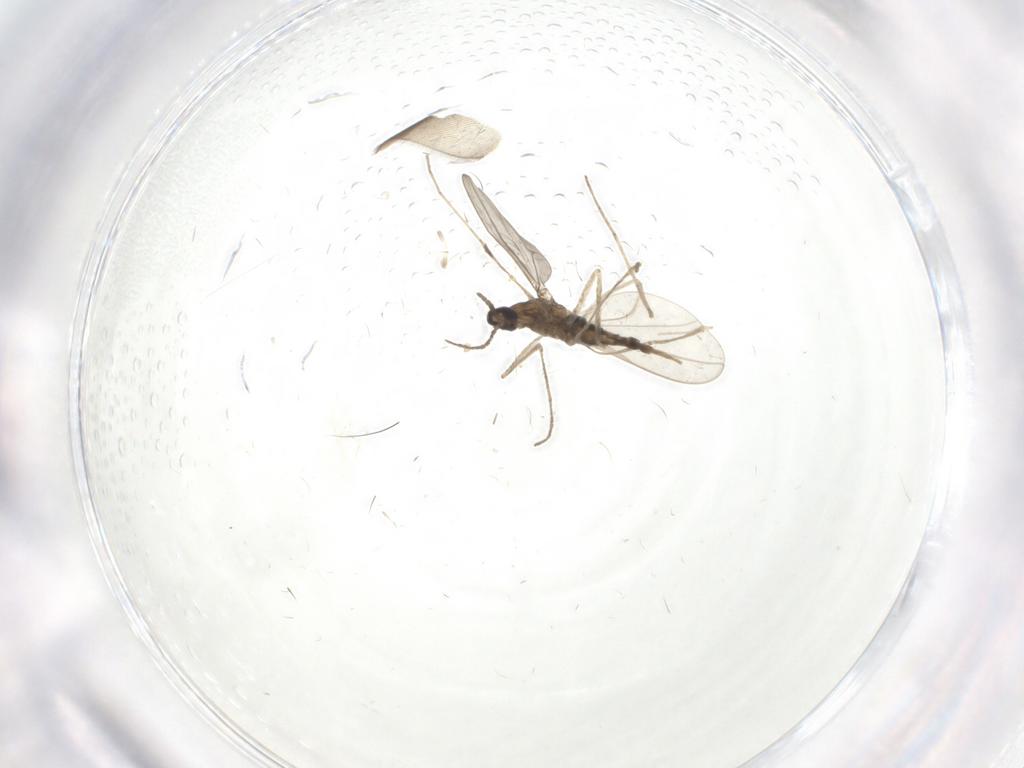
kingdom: Animalia
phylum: Arthropoda
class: Insecta
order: Diptera
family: Cecidomyiidae
